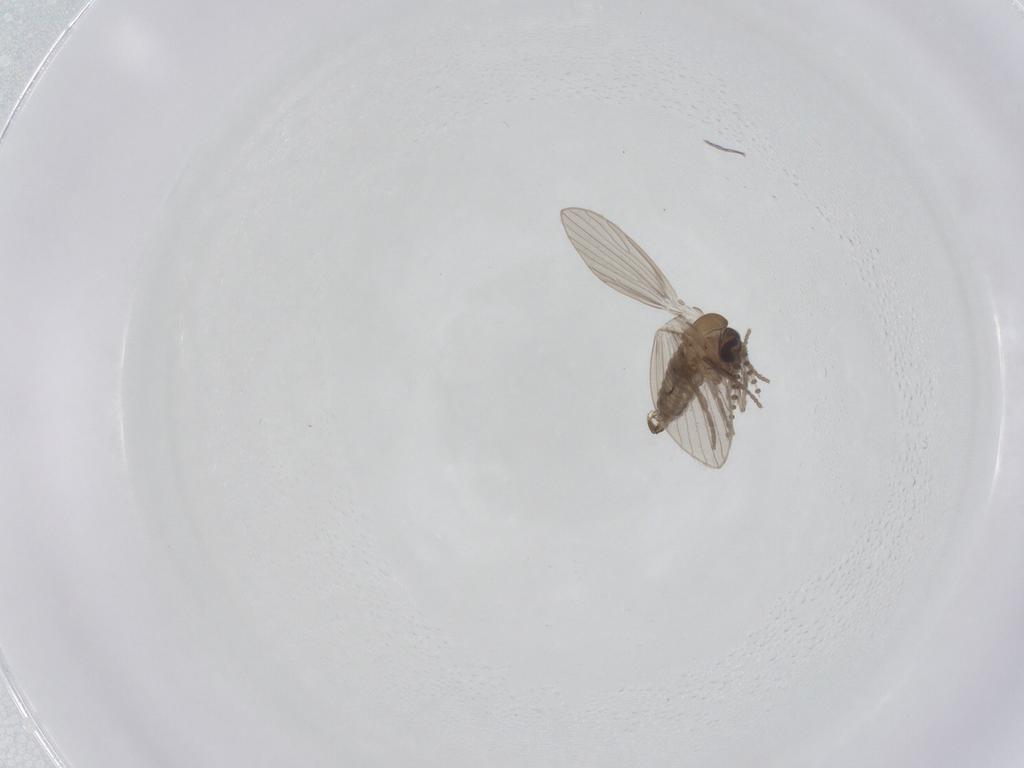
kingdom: Animalia
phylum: Arthropoda
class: Insecta
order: Diptera
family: Psychodidae
